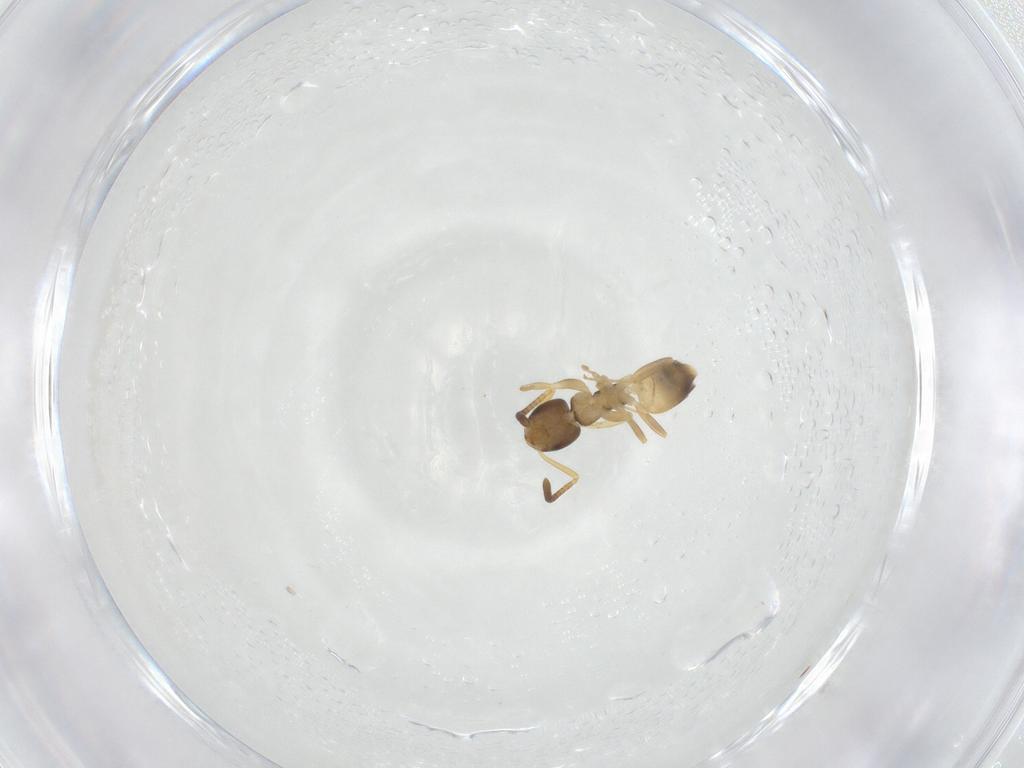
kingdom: Animalia
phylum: Arthropoda
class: Insecta
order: Hymenoptera
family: Formicidae
